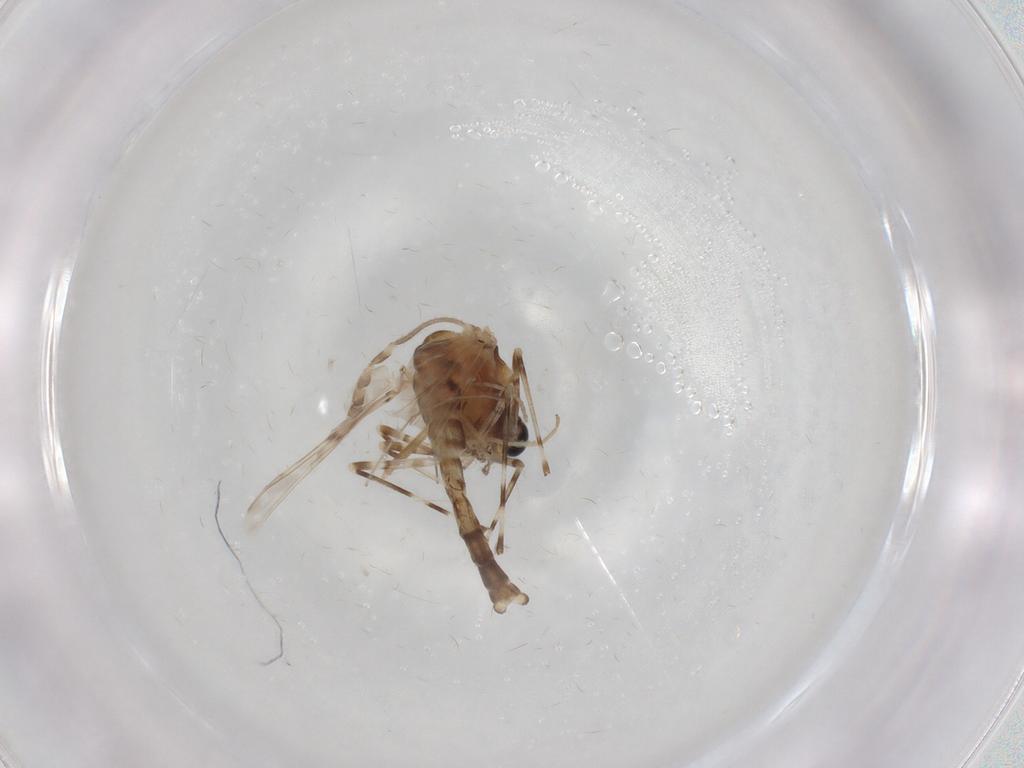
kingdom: Animalia
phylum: Arthropoda
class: Insecta
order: Diptera
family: Chironomidae
